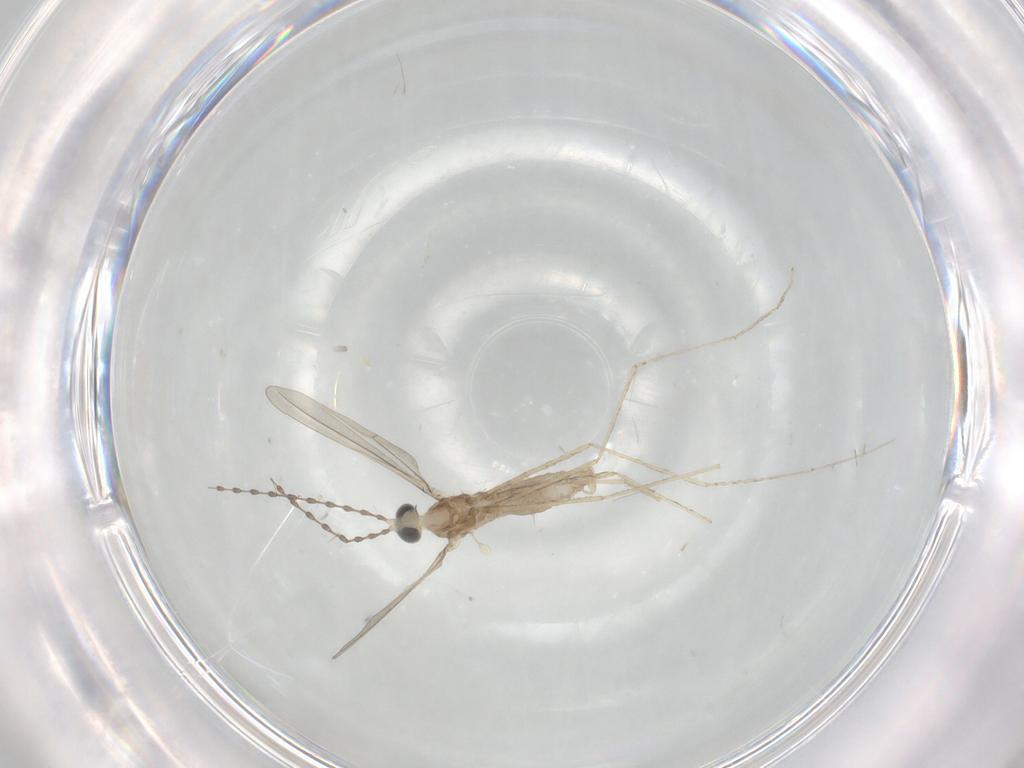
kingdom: Animalia
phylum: Arthropoda
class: Insecta
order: Diptera
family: Cecidomyiidae
